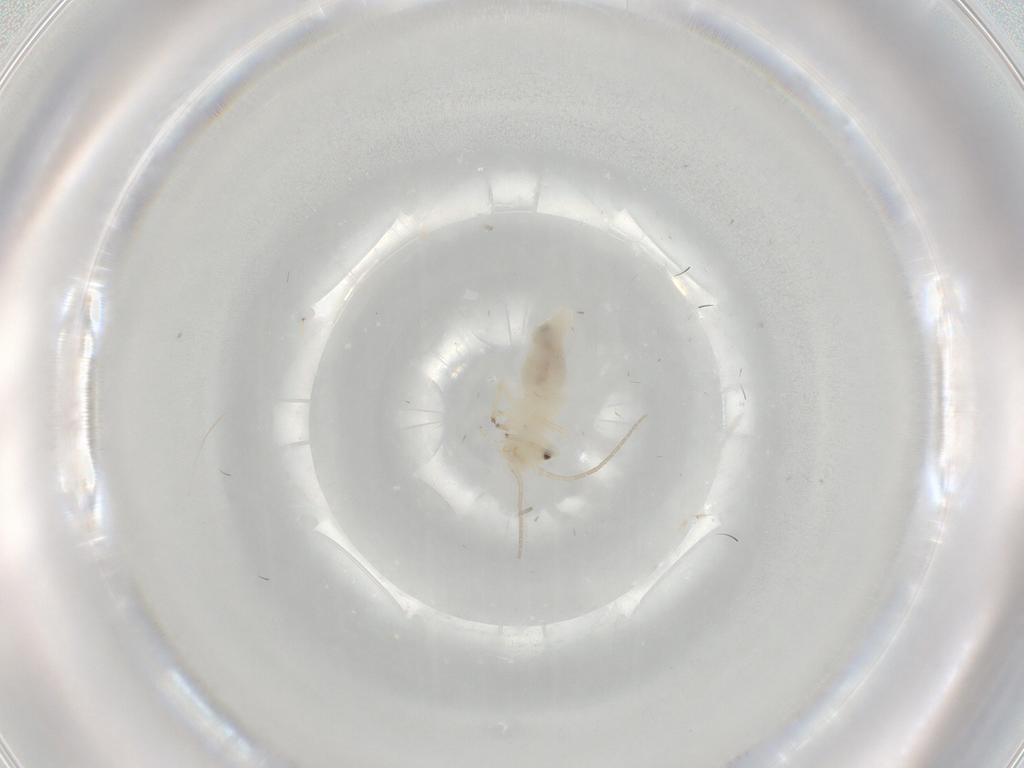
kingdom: Animalia
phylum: Arthropoda
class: Insecta
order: Psocodea
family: Caeciliusidae
